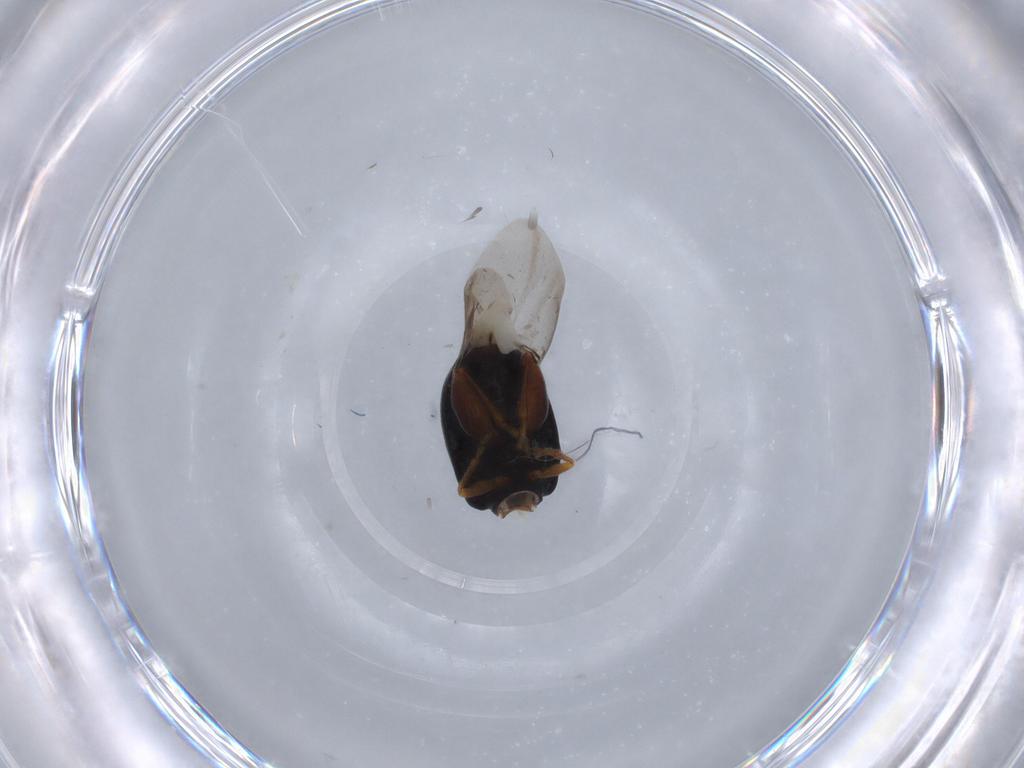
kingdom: Animalia
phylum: Arthropoda
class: Insecta
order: Coleoptera
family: Chrysomelidae
